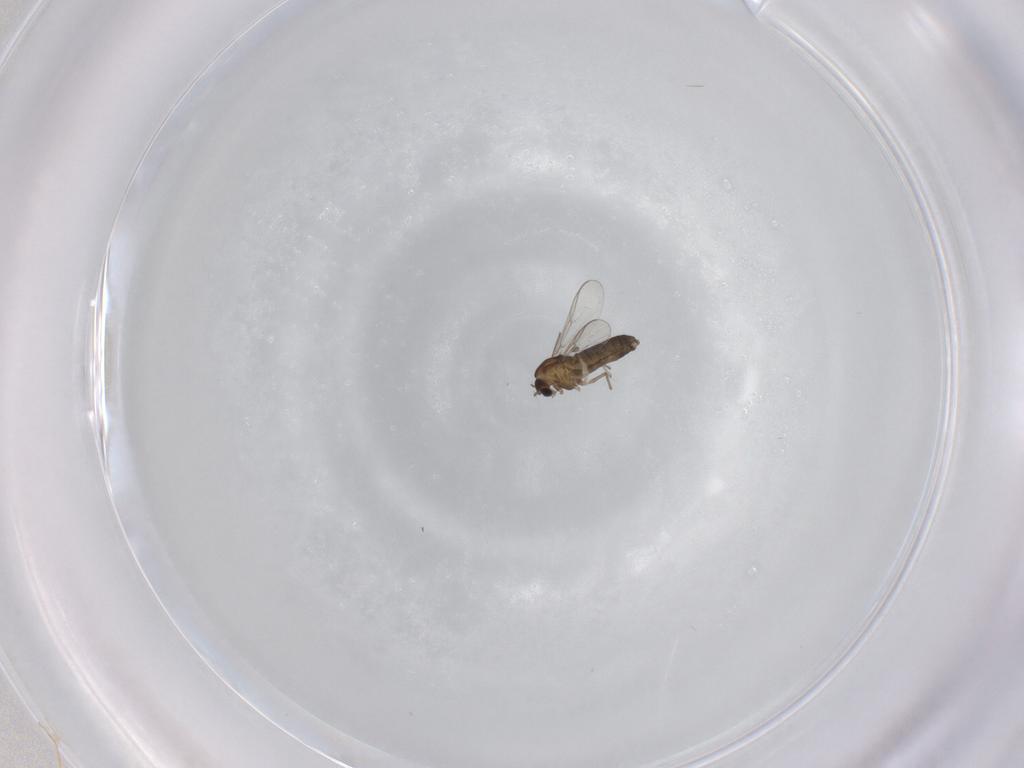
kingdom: Animalia
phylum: Arthropoda
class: Insecta
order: Diptera
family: Chironomidae
